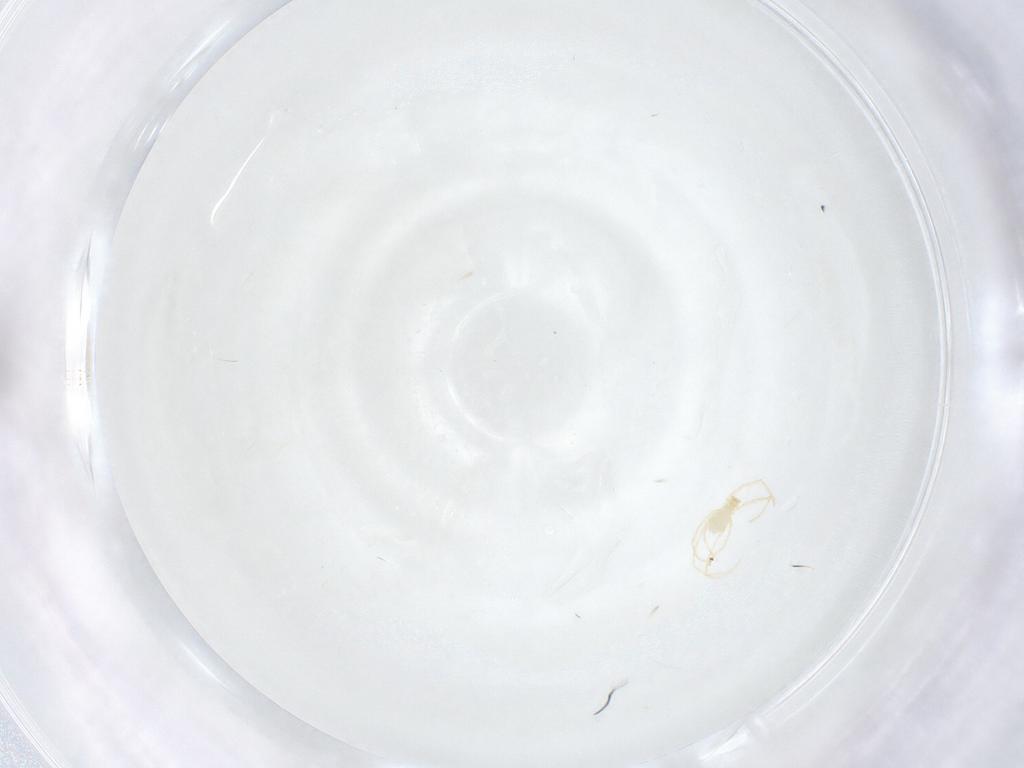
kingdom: Animalia
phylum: Arthropoda
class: Arachnida
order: Trombidiformes
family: Erythraeidae
